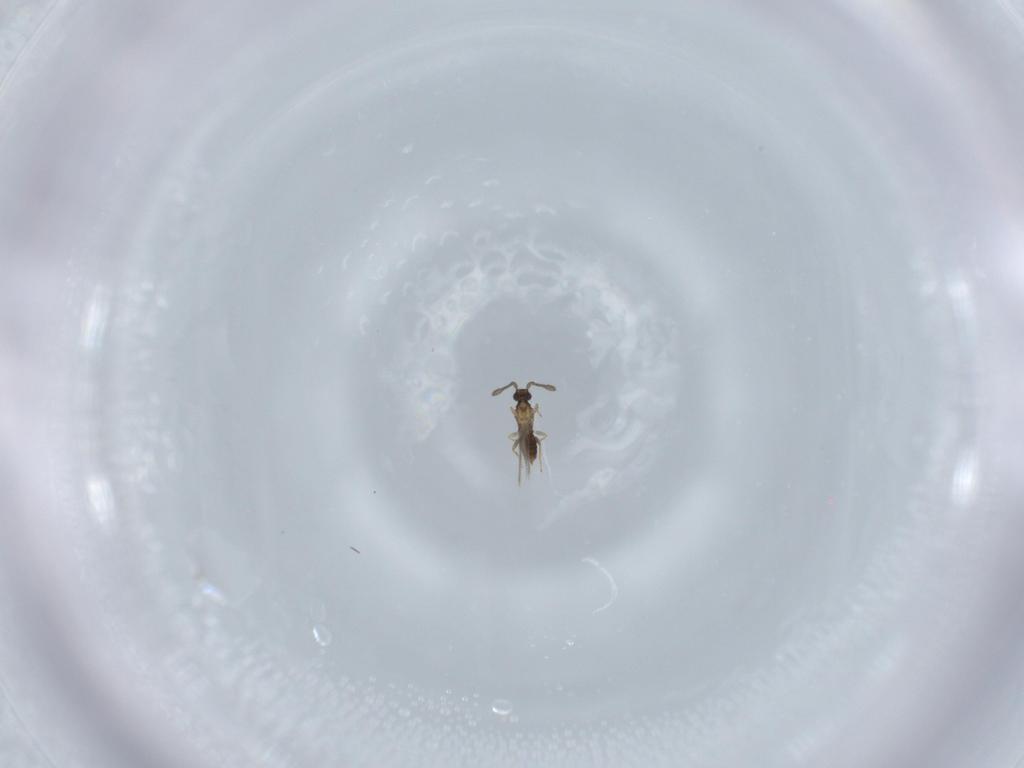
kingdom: Animalia
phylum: Arthropoda
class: Insecta
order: Hymenoptera
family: Mymaridae
